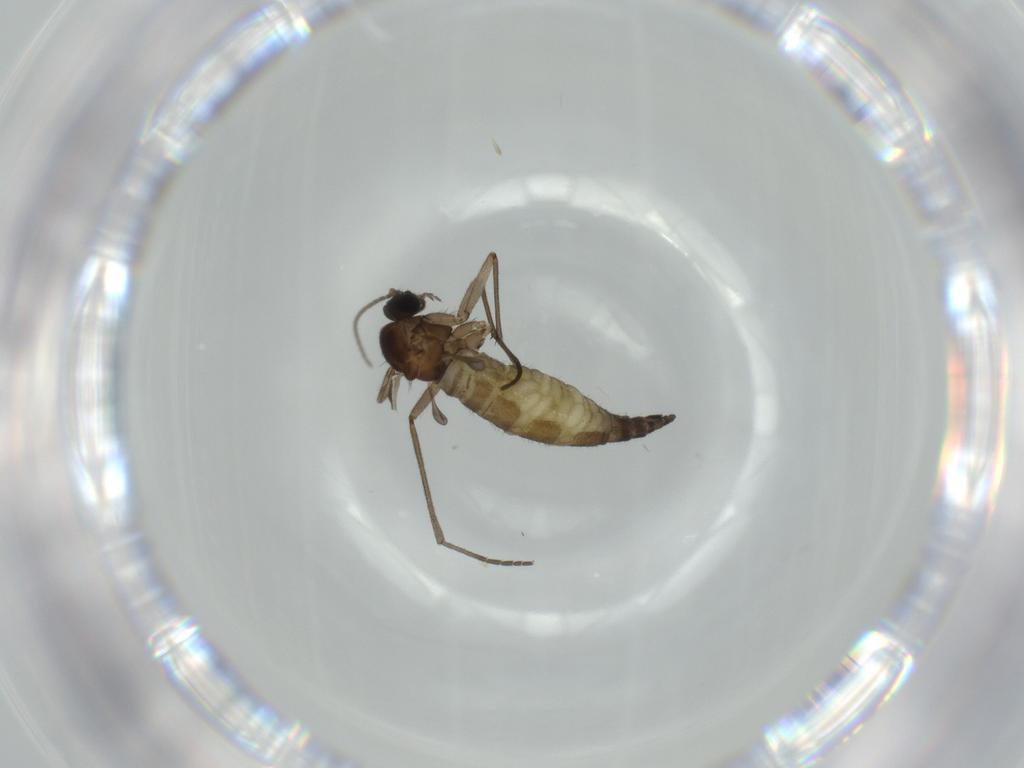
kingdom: Animalia
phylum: Arthropoda
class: Insecta
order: Diptera
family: Sciaridae
